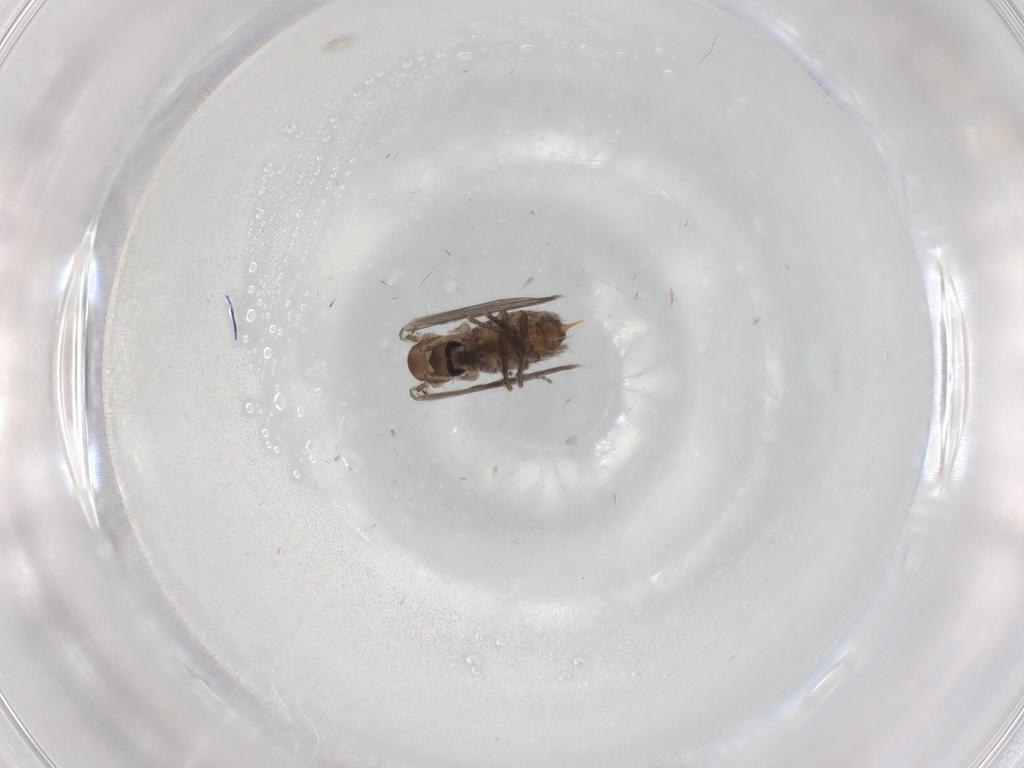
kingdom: Animalia
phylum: Arthropoda
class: Insecta
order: Diptera
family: Psychodidae
